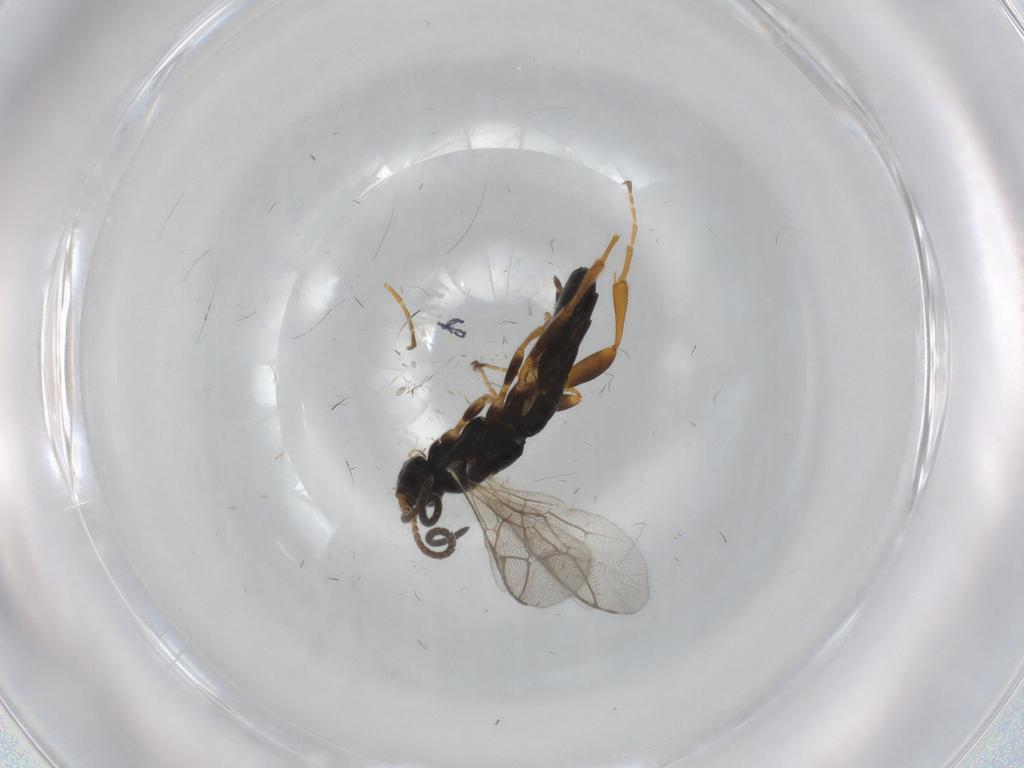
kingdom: Animalia
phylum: Arthropoda
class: Insecta
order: Hymenoptera
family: Ichneumonidae
